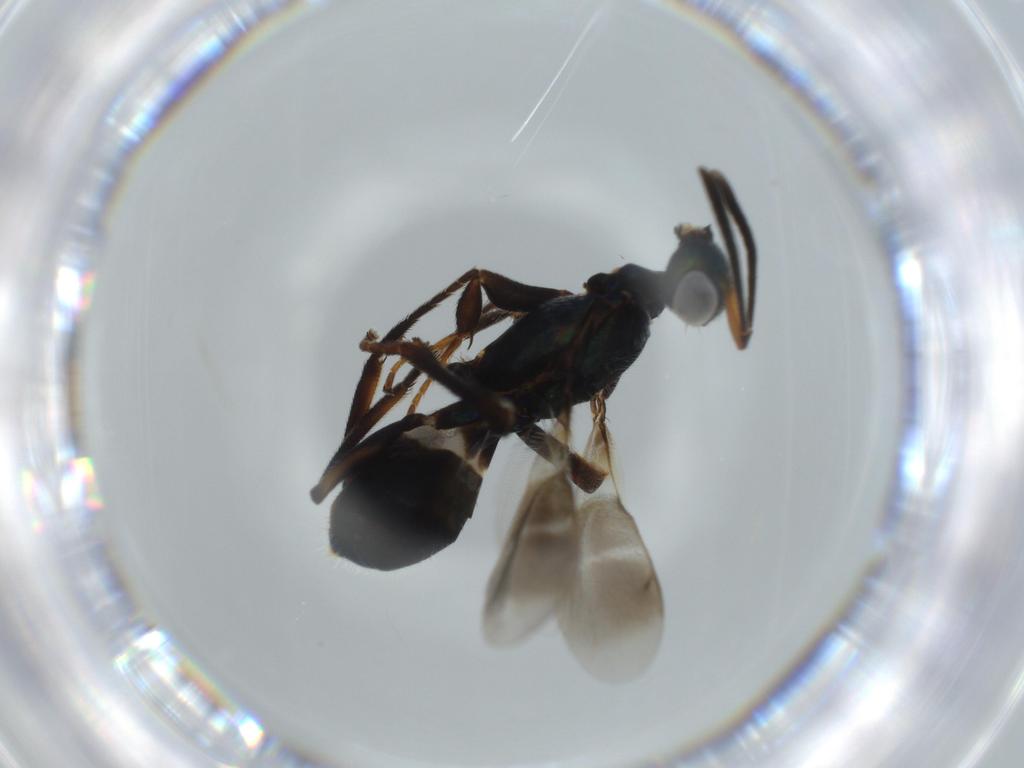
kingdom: Animalia
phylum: Arthropoda
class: Insecta
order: Hymenoptera
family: Eupelmidae
